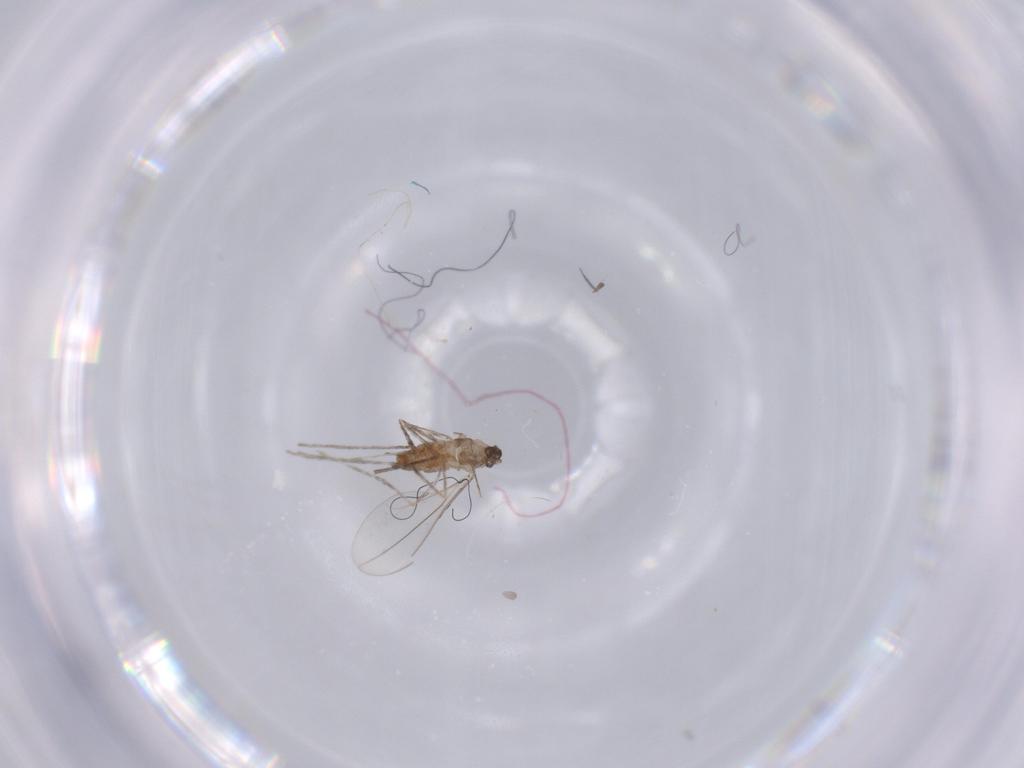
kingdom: Animalia
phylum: Arthropoda
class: Insecta
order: Diptera
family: Cecidomyiidae
